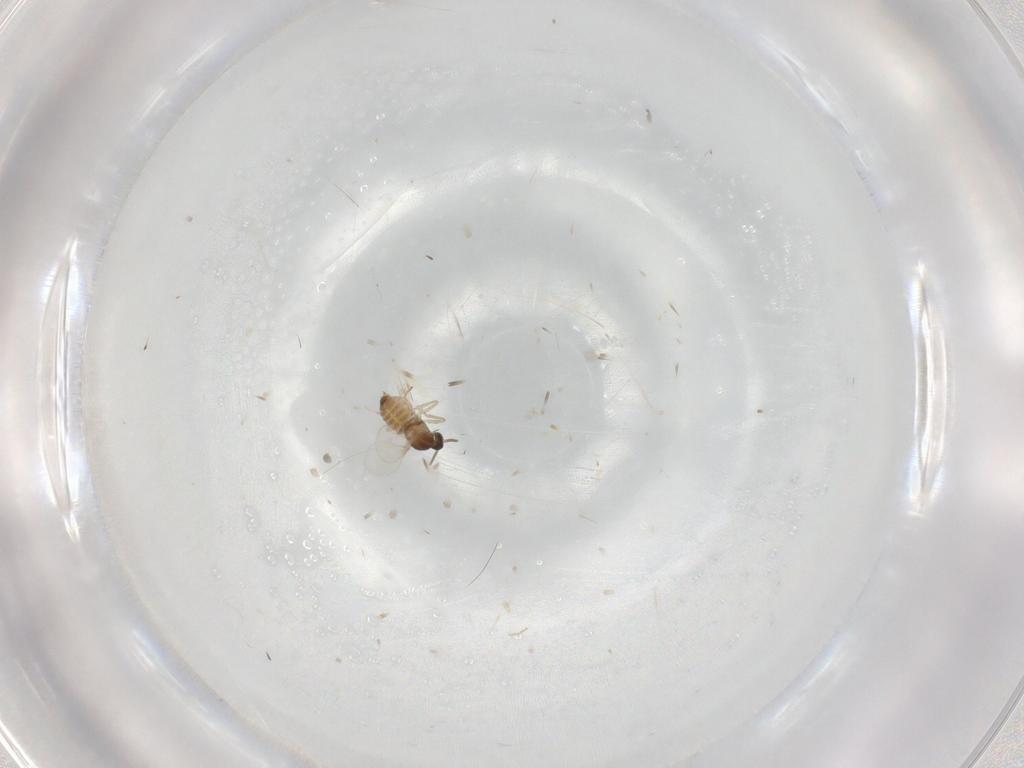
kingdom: Animalia
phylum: Arthropoda
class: Insecta
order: Diptera
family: Cecidomyiidae
